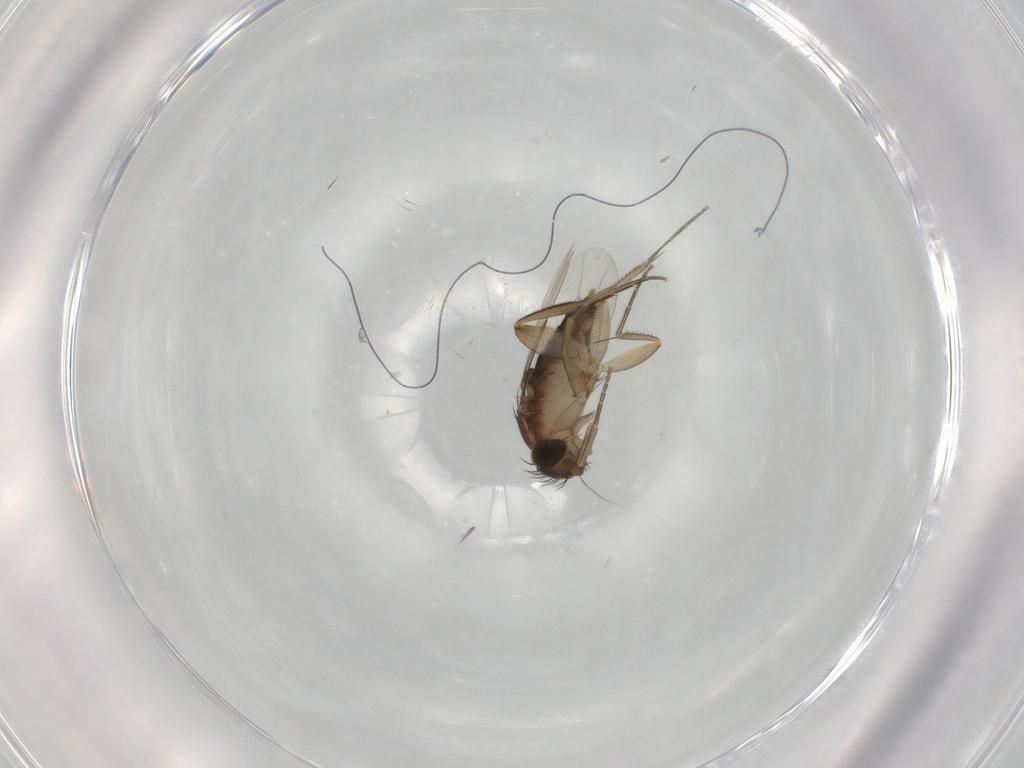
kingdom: Animalia
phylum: Arthropoda
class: Insecta
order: Diptera
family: Phoridae
